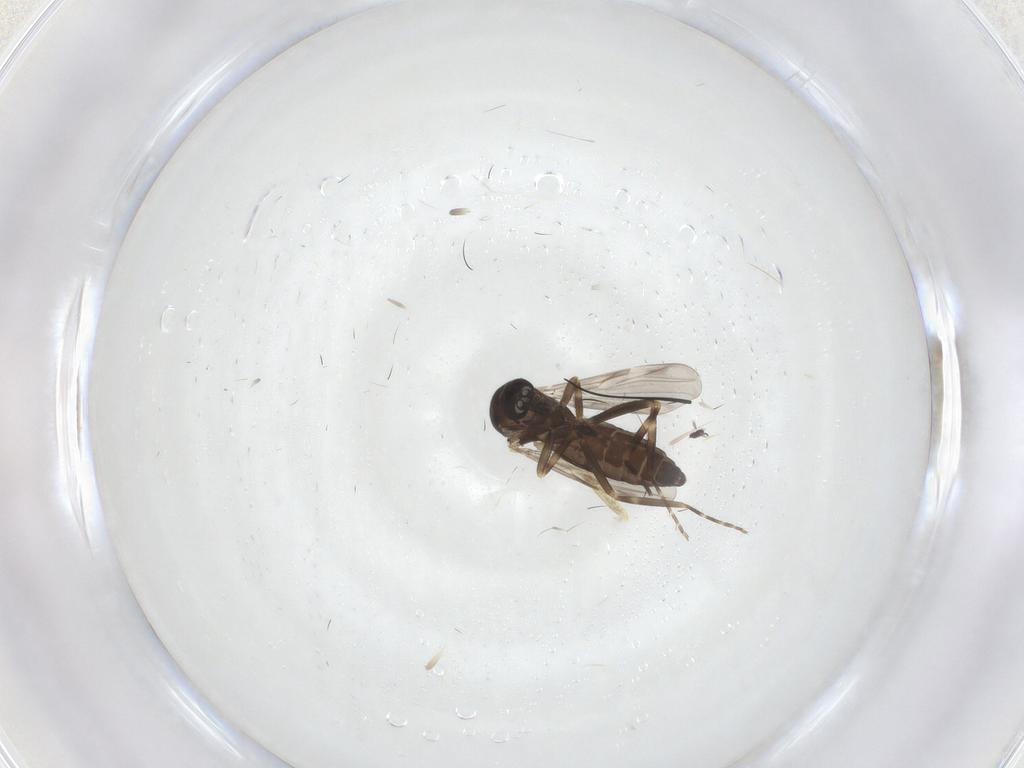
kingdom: Animalia
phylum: Arthropoda
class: Insecta
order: Diptera
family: Ceratopogonidae
